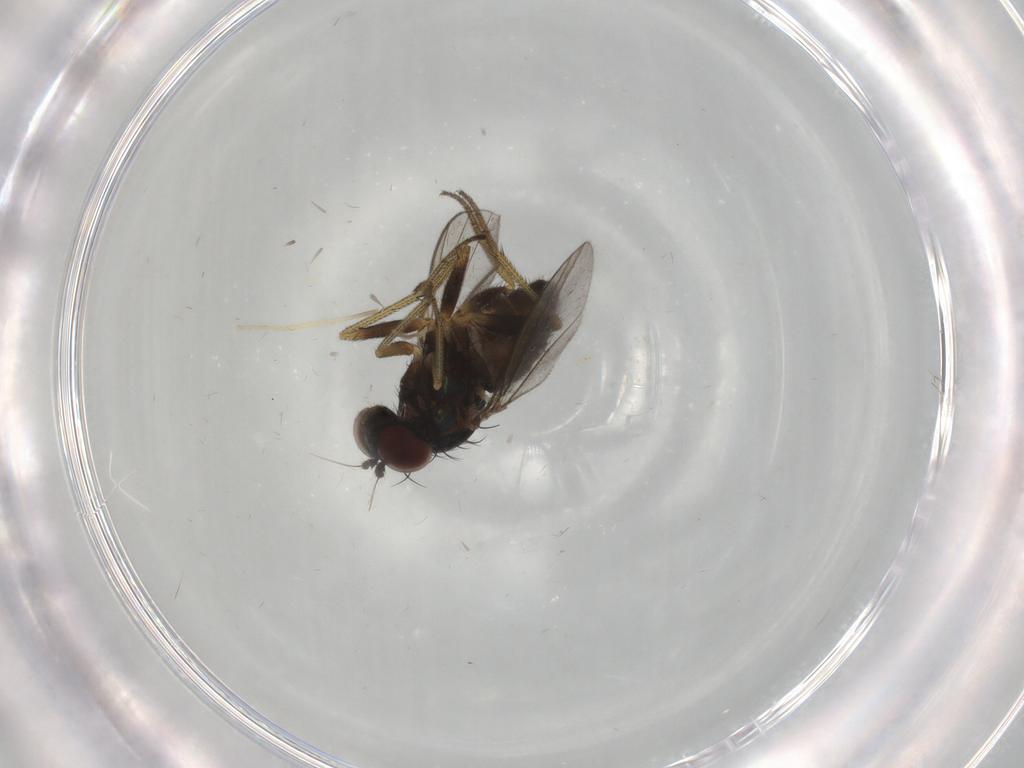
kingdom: Animalia
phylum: Arthropoda
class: Insecta
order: Diptera
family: Chironomidae
